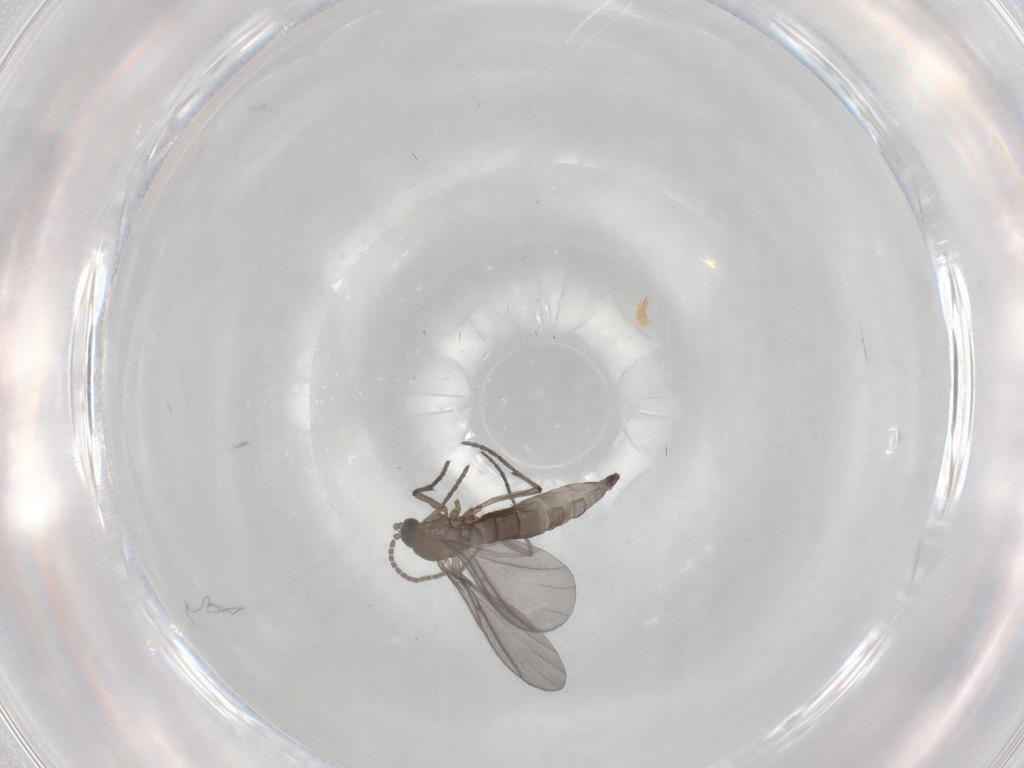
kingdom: Animalia
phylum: Arthropoda
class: Insecta
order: Diptera
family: Sciaridae
